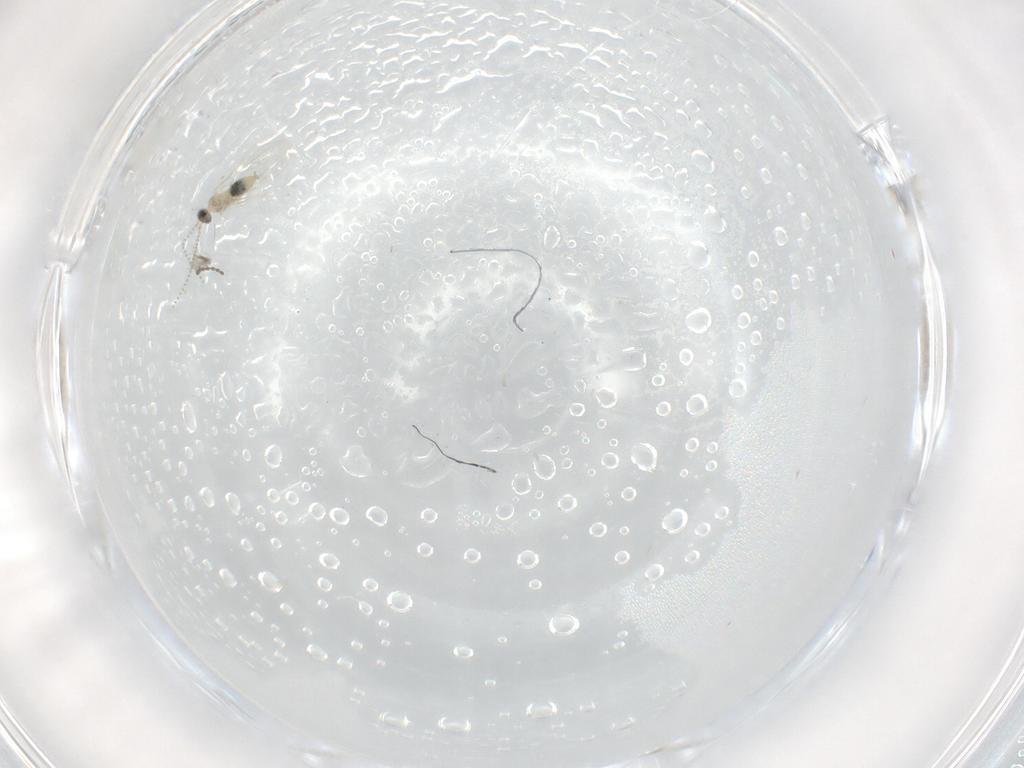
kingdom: Animalia
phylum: Arthropoda
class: Insecta
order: Diptera
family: Cecidomyiidae
